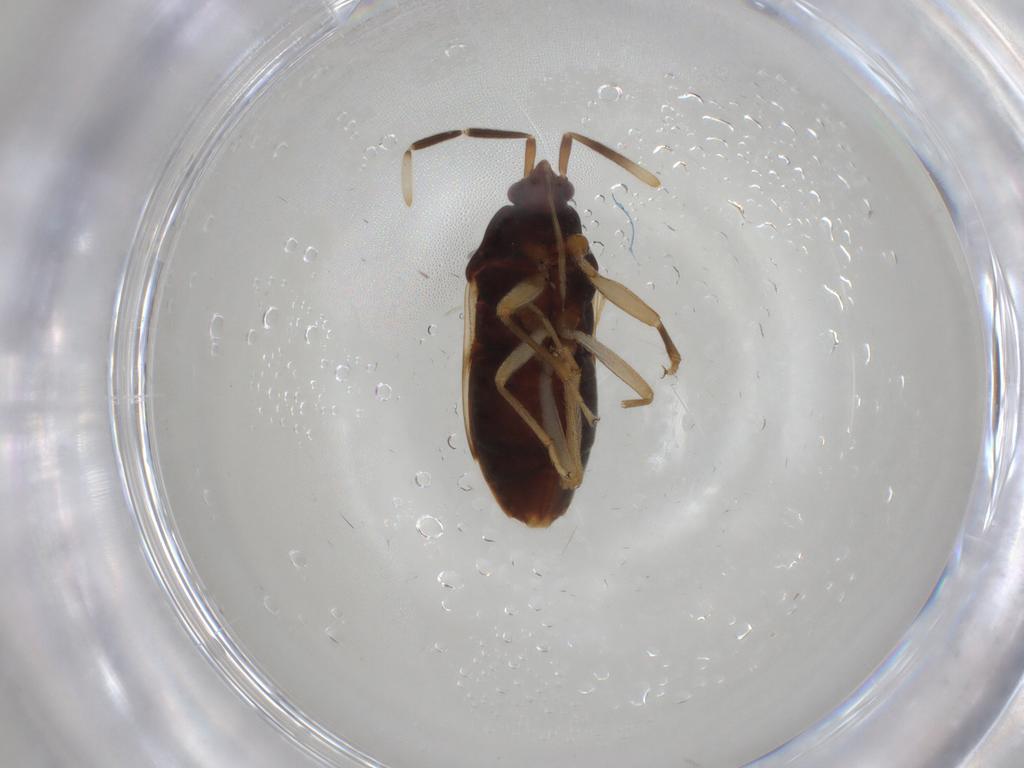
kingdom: Animalia
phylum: Arthropoda
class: Insecta
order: Hemiptera
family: Rhyparochromidae
